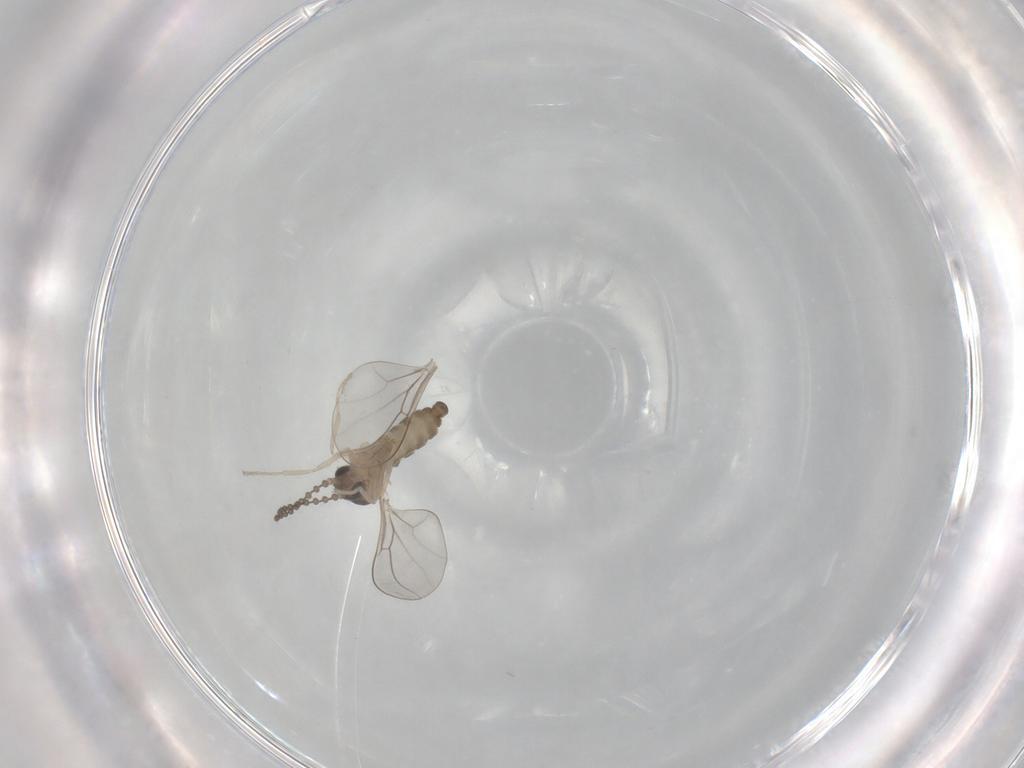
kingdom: Animalia
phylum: Arthropoda
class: Insecta
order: Diptera
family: Cecidomyiidae
